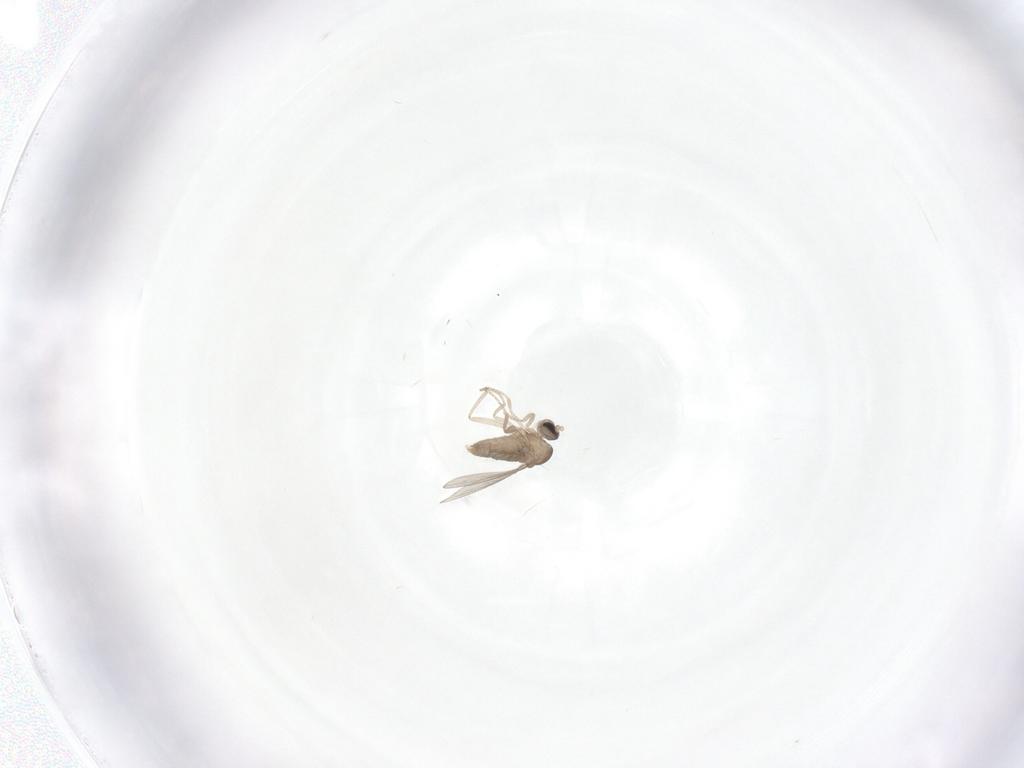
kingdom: Animalia
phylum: Arthropoda
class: Insecta
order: Diptera
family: Cecidomyiidae
